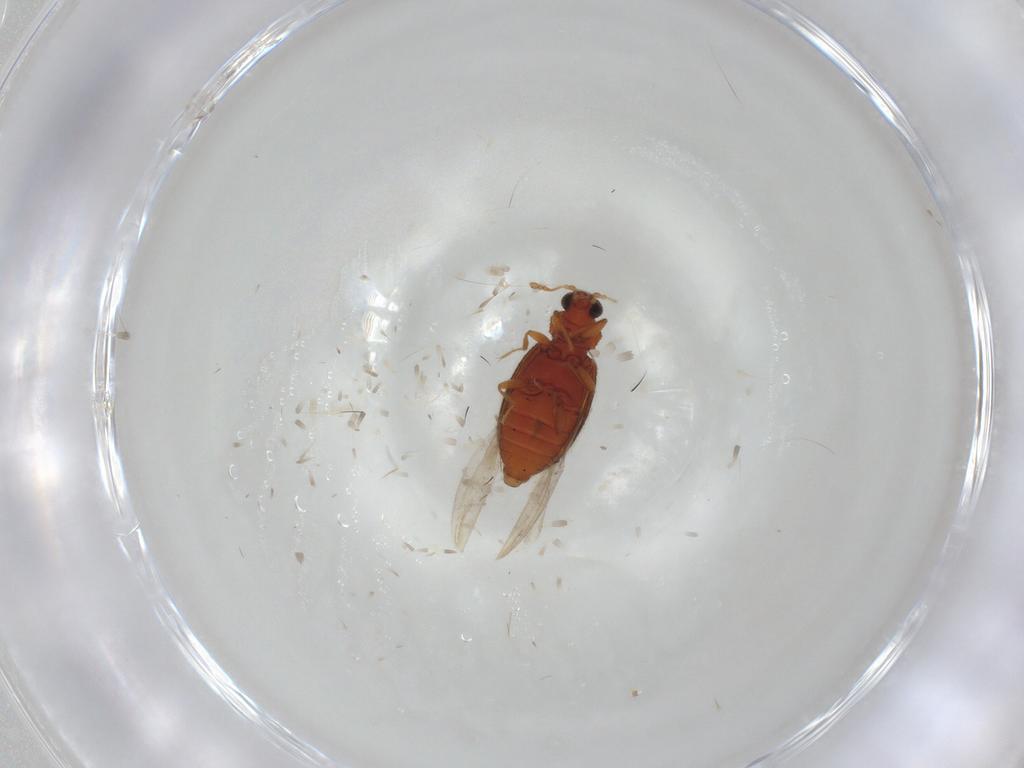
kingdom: Animalia
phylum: Arthropoda
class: Insecta
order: Coleoptera
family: Latridiidae
